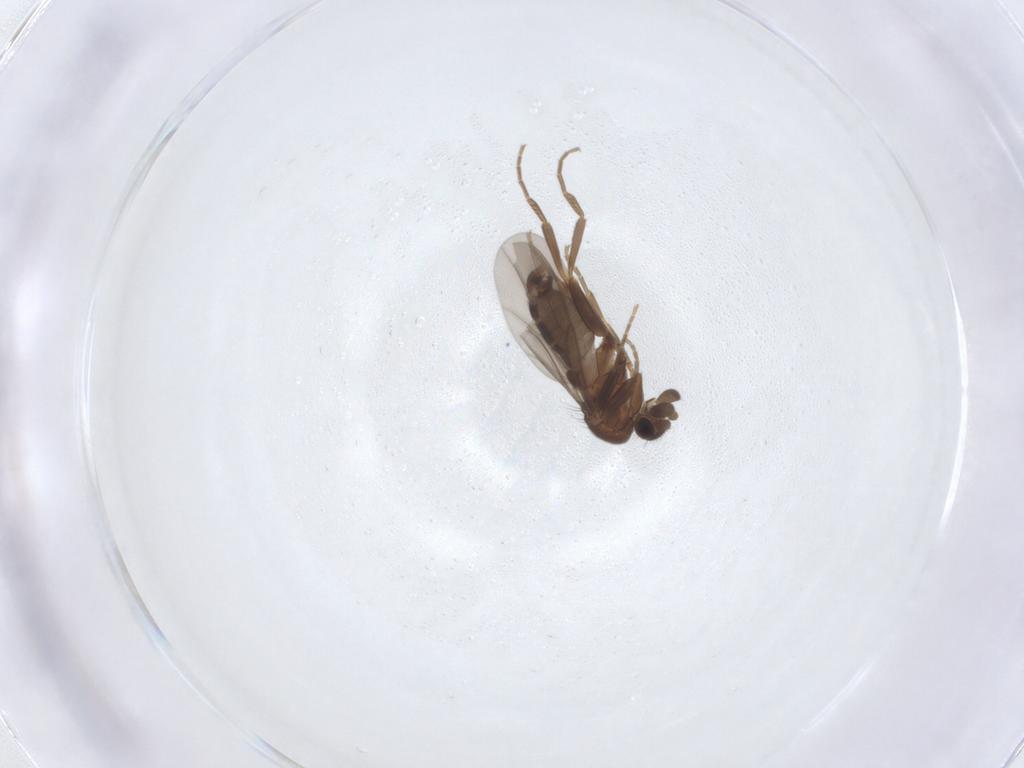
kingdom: Animalia
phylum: Arthropoda
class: Insecta
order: Diptera
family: Phoridae
